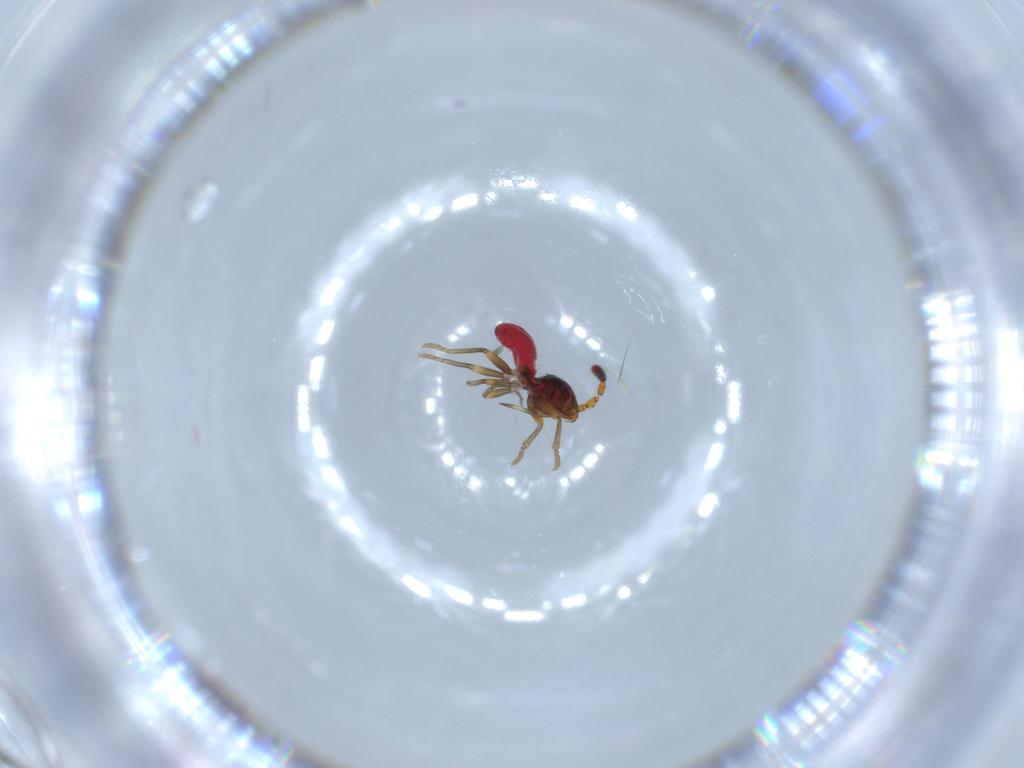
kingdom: Animalia
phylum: Arthropoda
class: Insecta
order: Hemiptera
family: Rhyparochromidae
